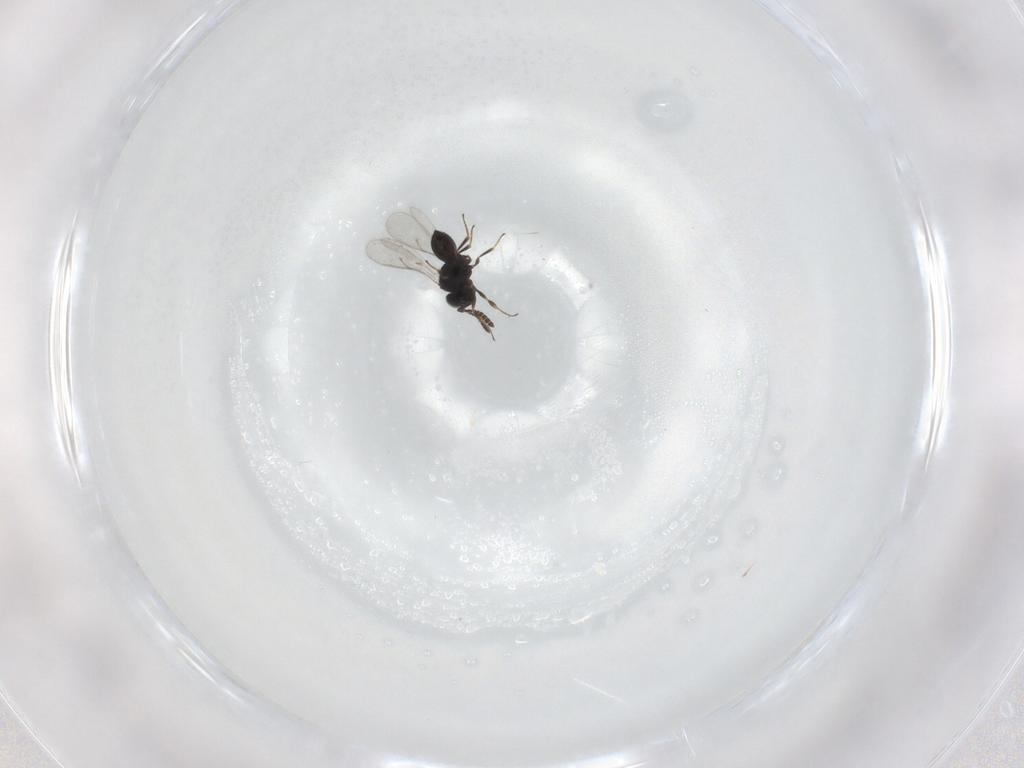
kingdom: Animalia
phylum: Arthropoda
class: Insecta
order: Hymenoptera
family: Scelionidae
